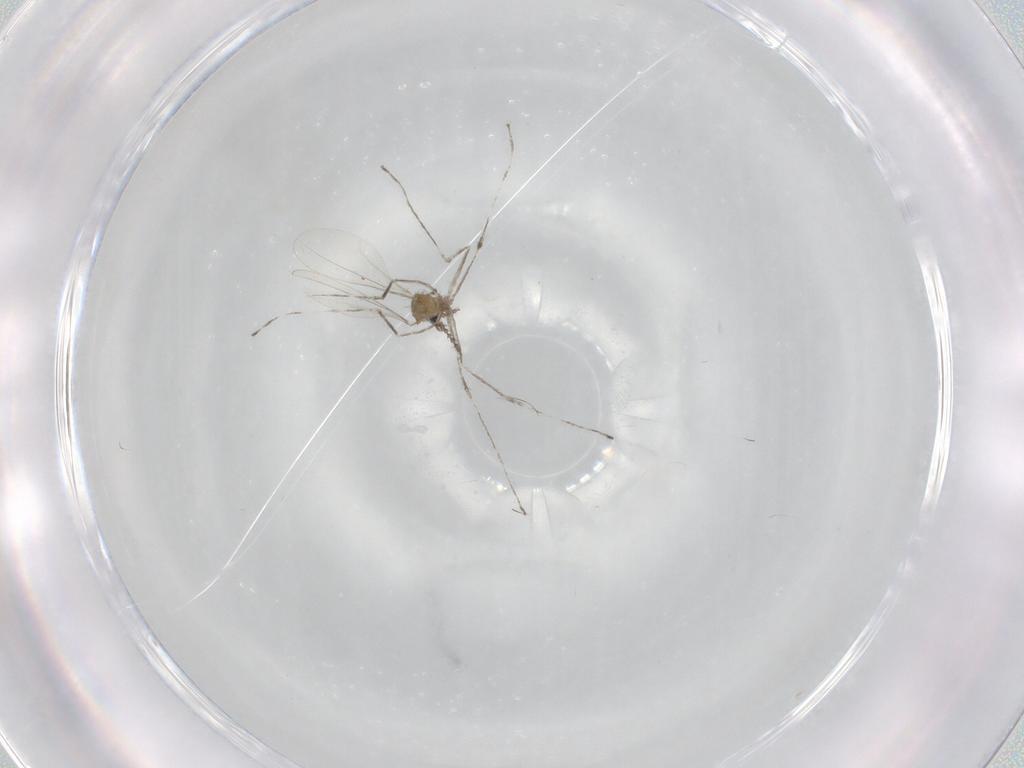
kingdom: Animalia
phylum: Arthropoda
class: Insecta
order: Diptera
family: Cecidomyiidae
